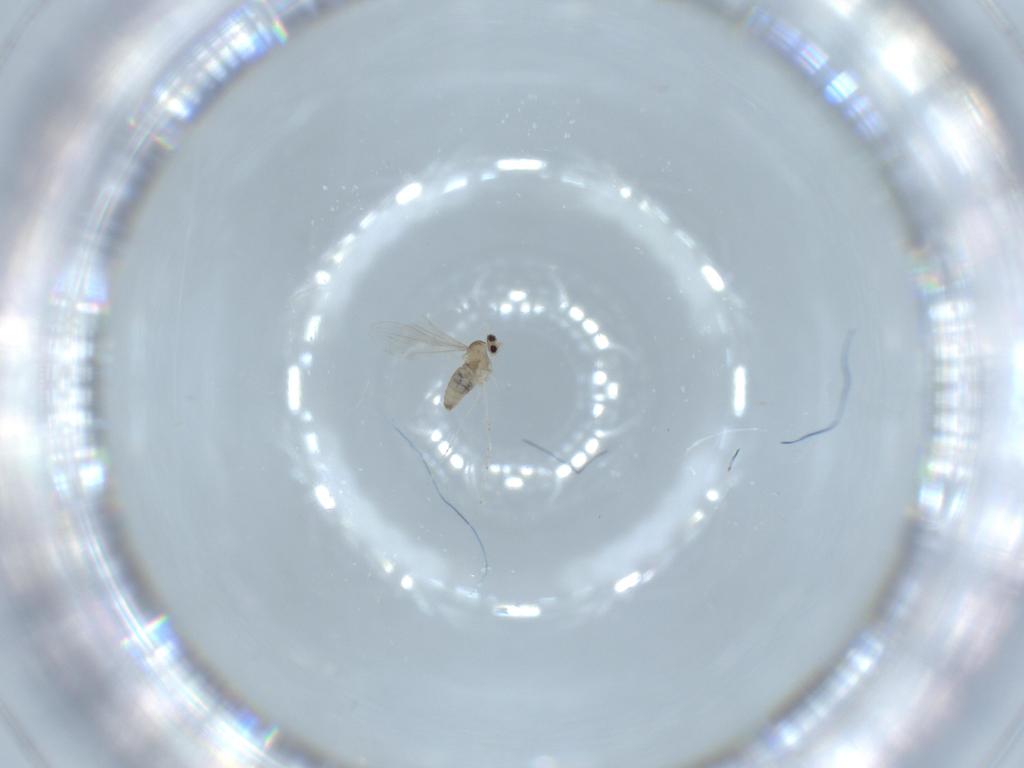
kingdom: Animalia
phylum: Arthropoda
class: Insecta
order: Diptera
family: Cecidomyiidae
